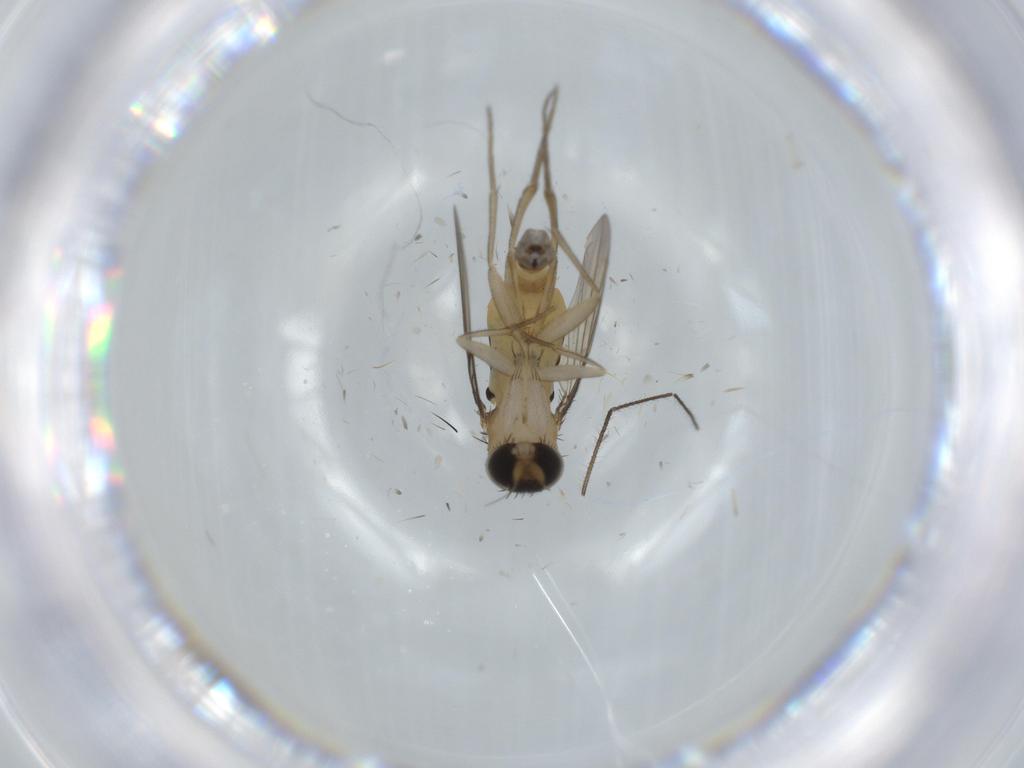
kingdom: Animalia
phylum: Arthropoda
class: Insecta
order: Diptera
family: Phoridae
